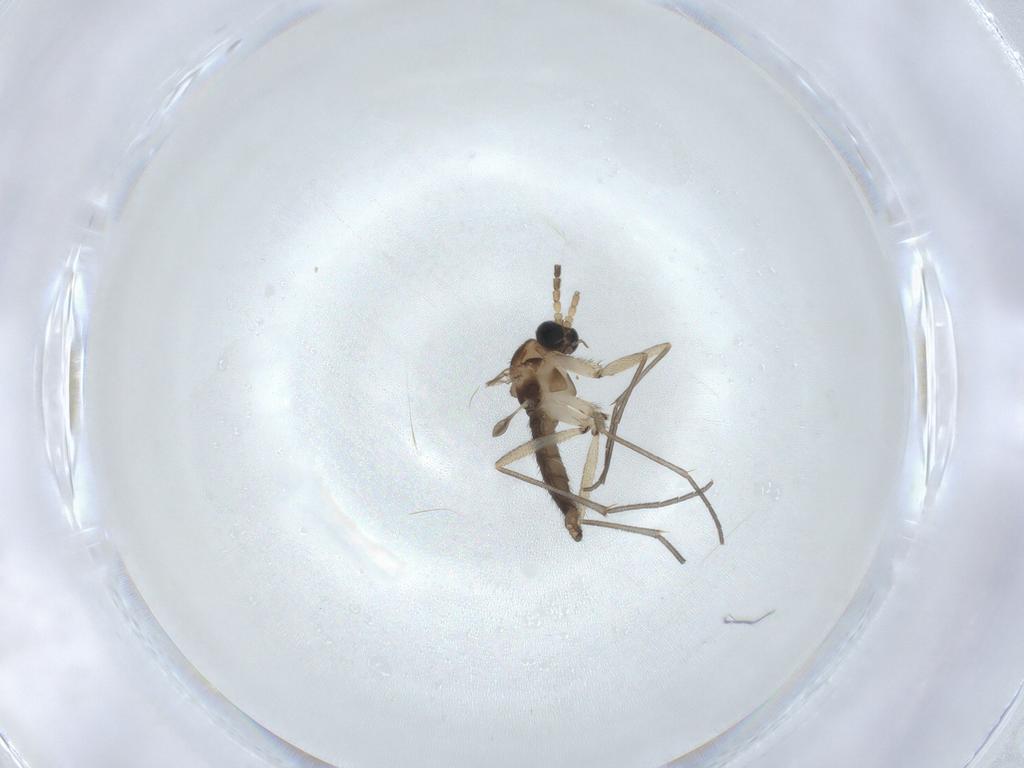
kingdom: Animalia
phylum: Arthropoda
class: Insecta
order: Diptera
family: Sciaridae
